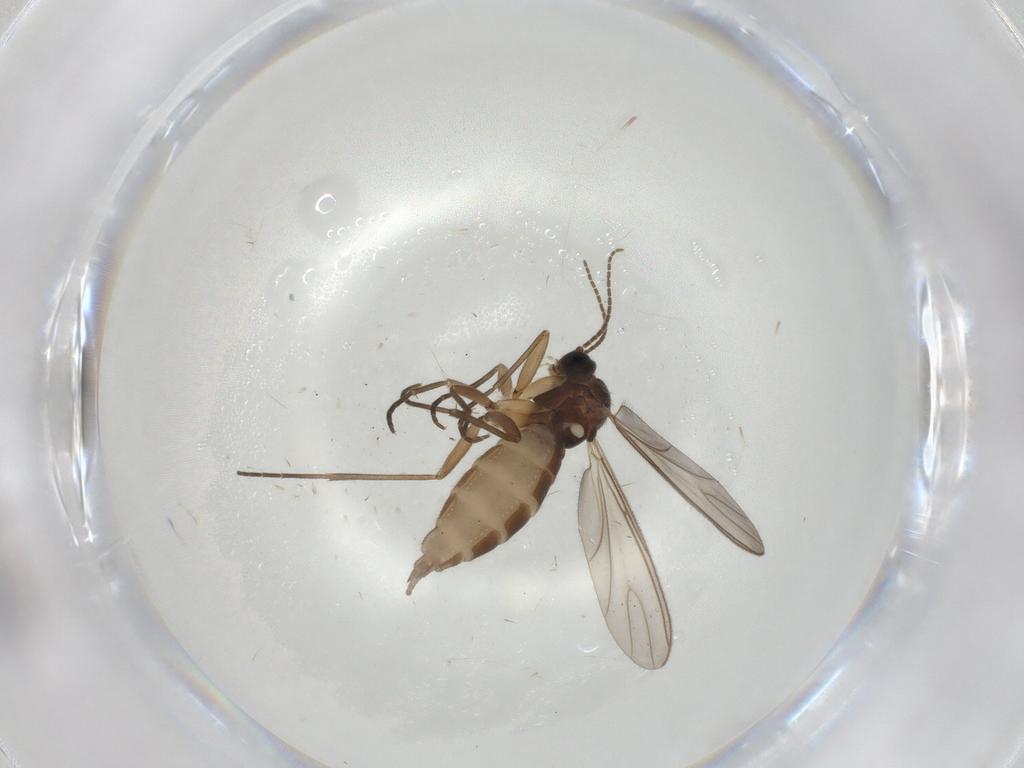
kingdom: Animalia
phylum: Arthropoda
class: Insecta
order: Diptera
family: Sciaridae
